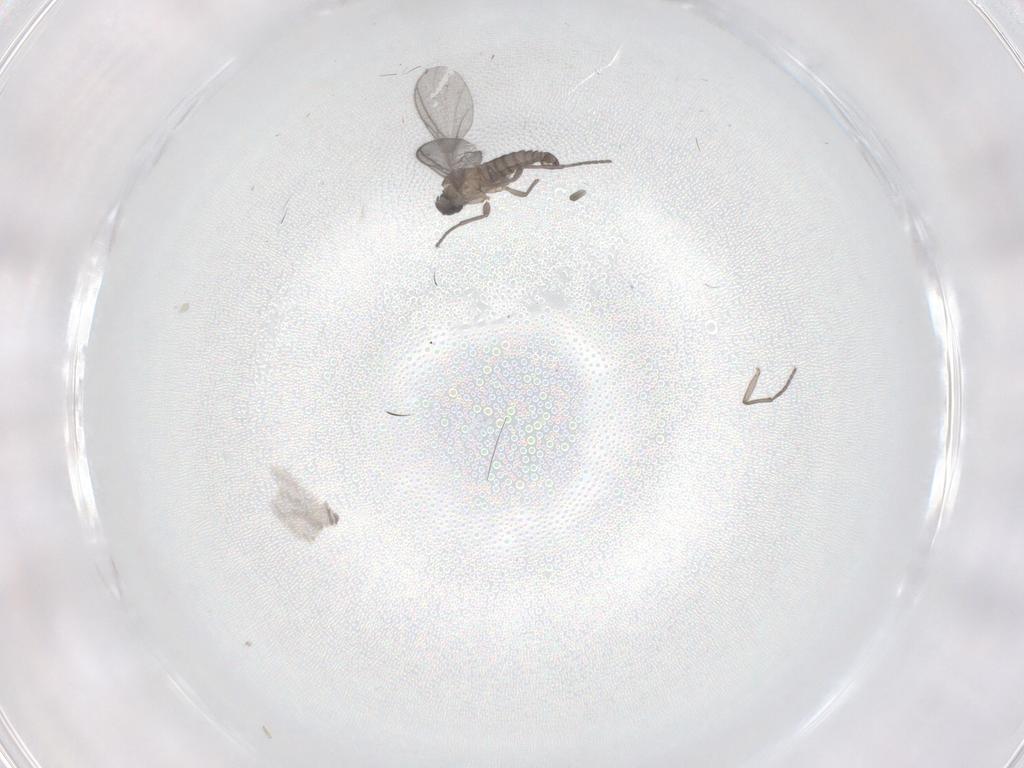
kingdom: Animalia
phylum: Arthropoda
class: Insecta
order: Diptera
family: Sciaridae
